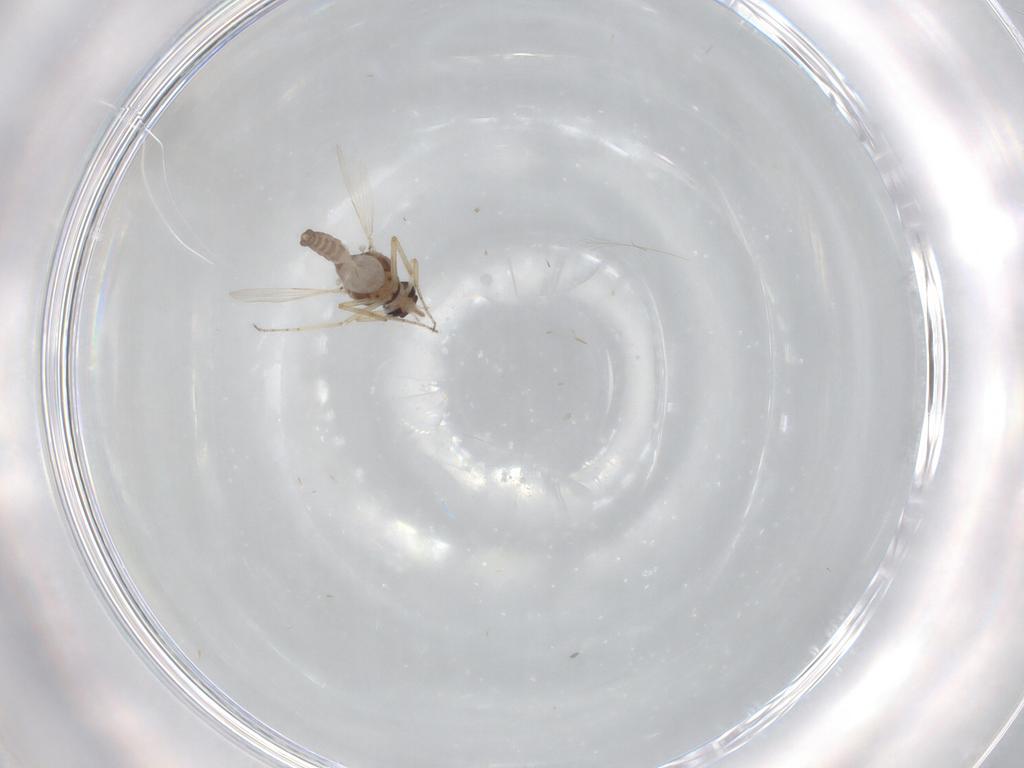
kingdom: Animalia
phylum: Arthropoda
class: Insecta
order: Diptera
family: Ceratopogonidae
